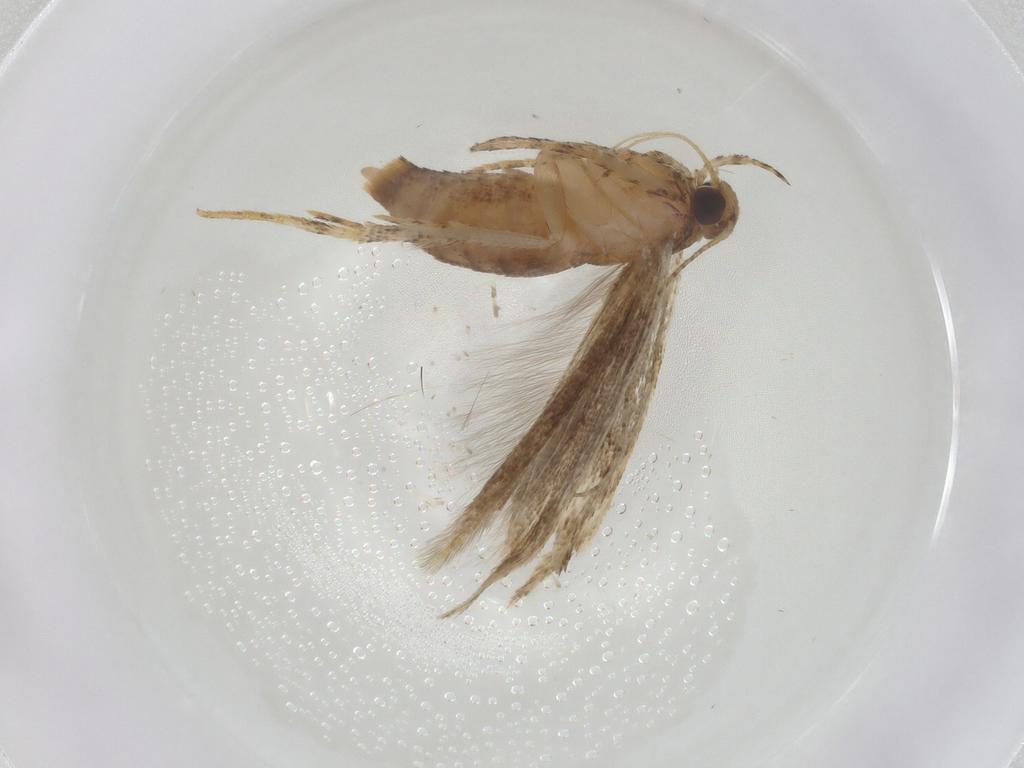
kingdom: Animalia
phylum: Arthropoda
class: Insecta
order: Lepidoptera
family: Gelechiidae
